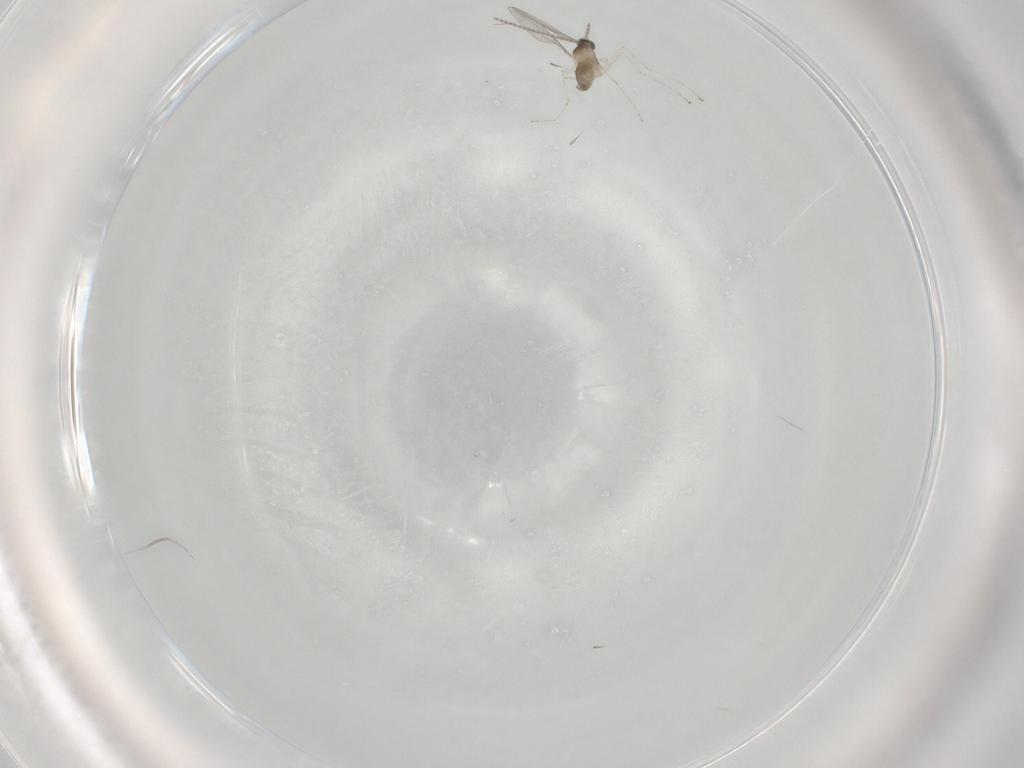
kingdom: Animalia
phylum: Arthropoda
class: Insecta
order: Diptera
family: Cecidomyiidae
